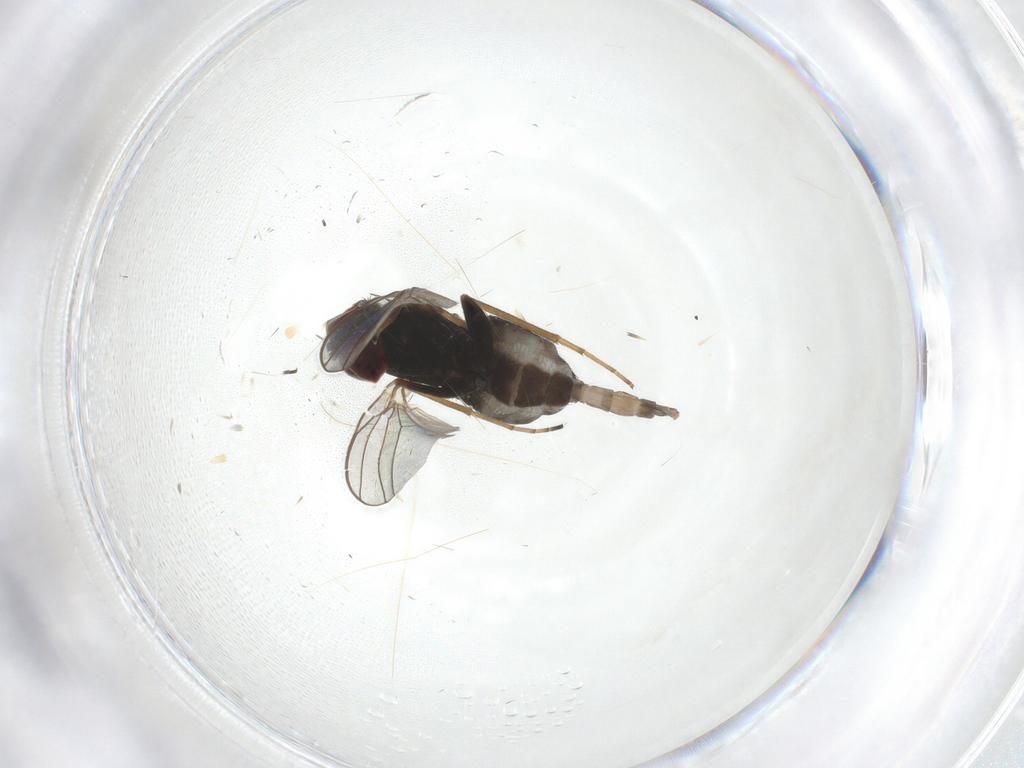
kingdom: Animalia
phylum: Arthropoda
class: Insecta
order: Diptera
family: Dolichopodidae
